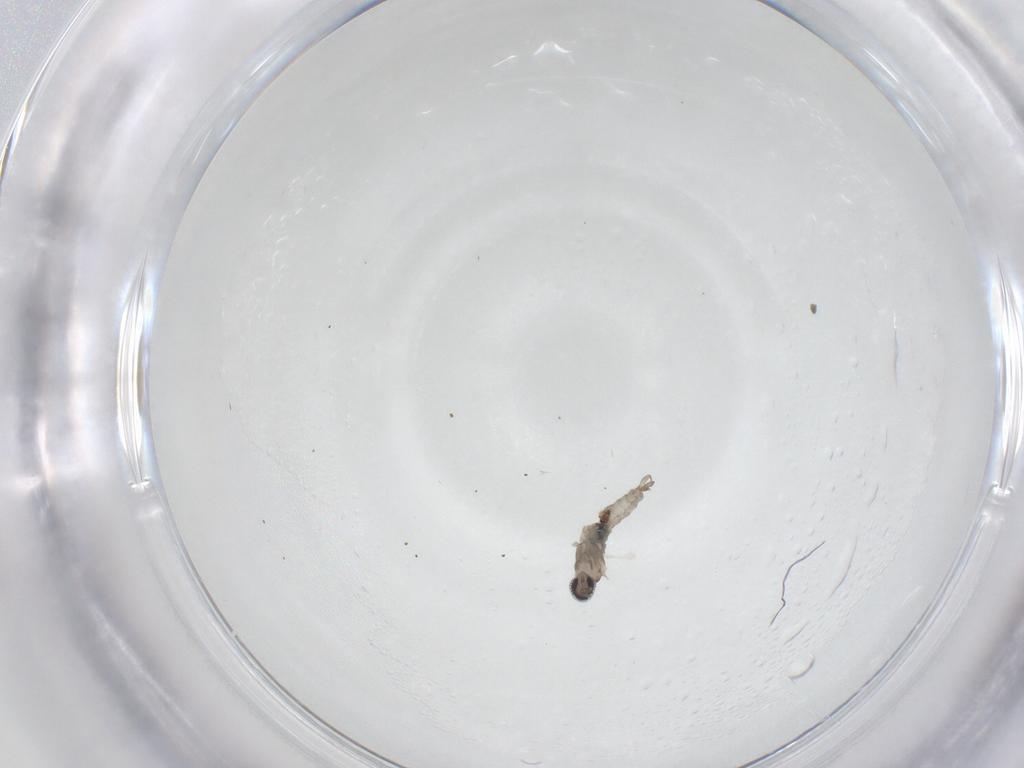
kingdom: Animalia
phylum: Arthropoda
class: Insecta
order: Diptera
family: Cecidomyiidae
